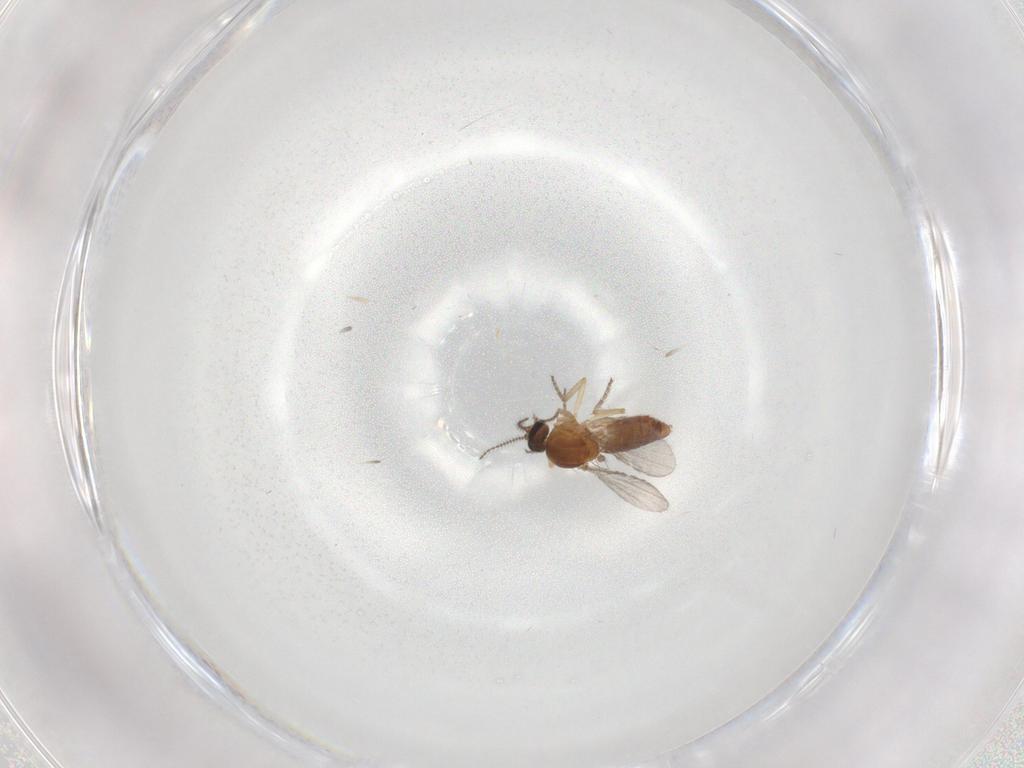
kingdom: Animalia
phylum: Arthropoda
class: Insecta
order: Diptera
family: Ceratopogonidae
